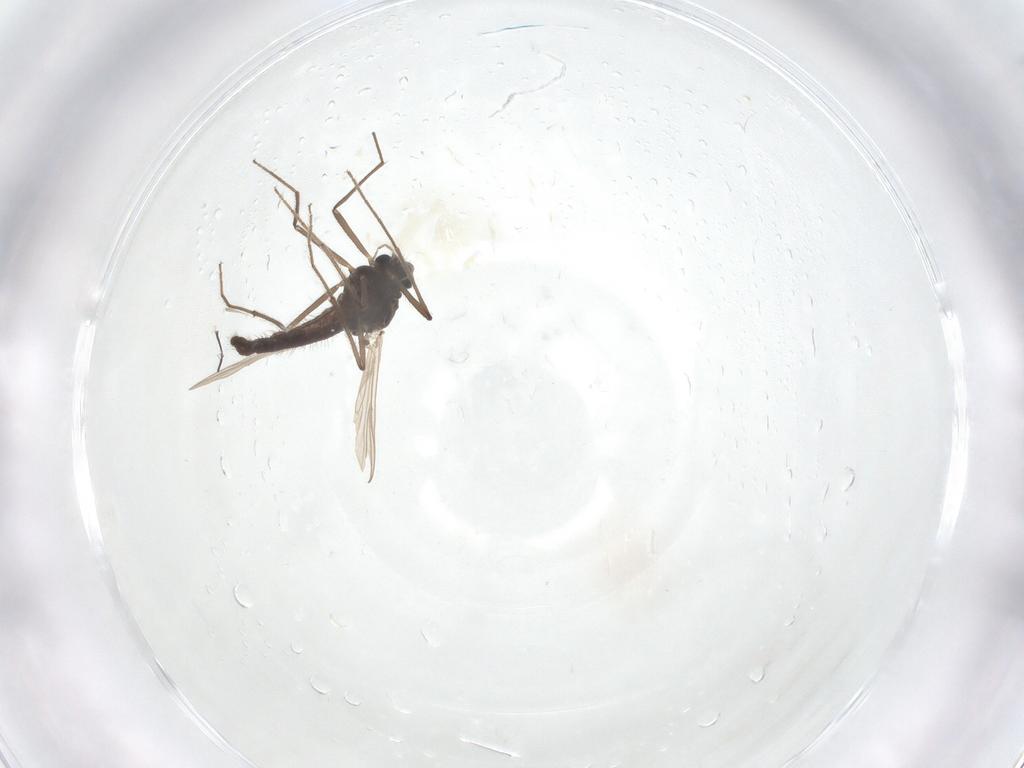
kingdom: Animalia
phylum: Arthropoda
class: Insecta
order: Diptera
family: Chironomidae
